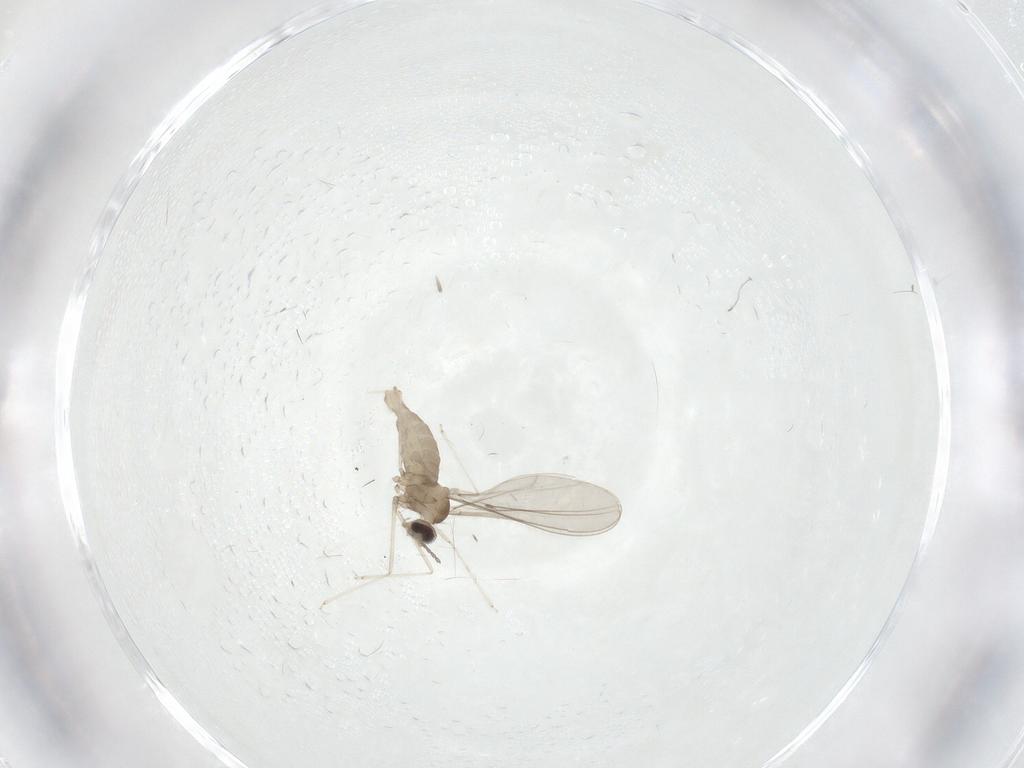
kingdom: Animalia
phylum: Arthropoda
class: Insecta
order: Diptera
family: Cecidomyiidae
